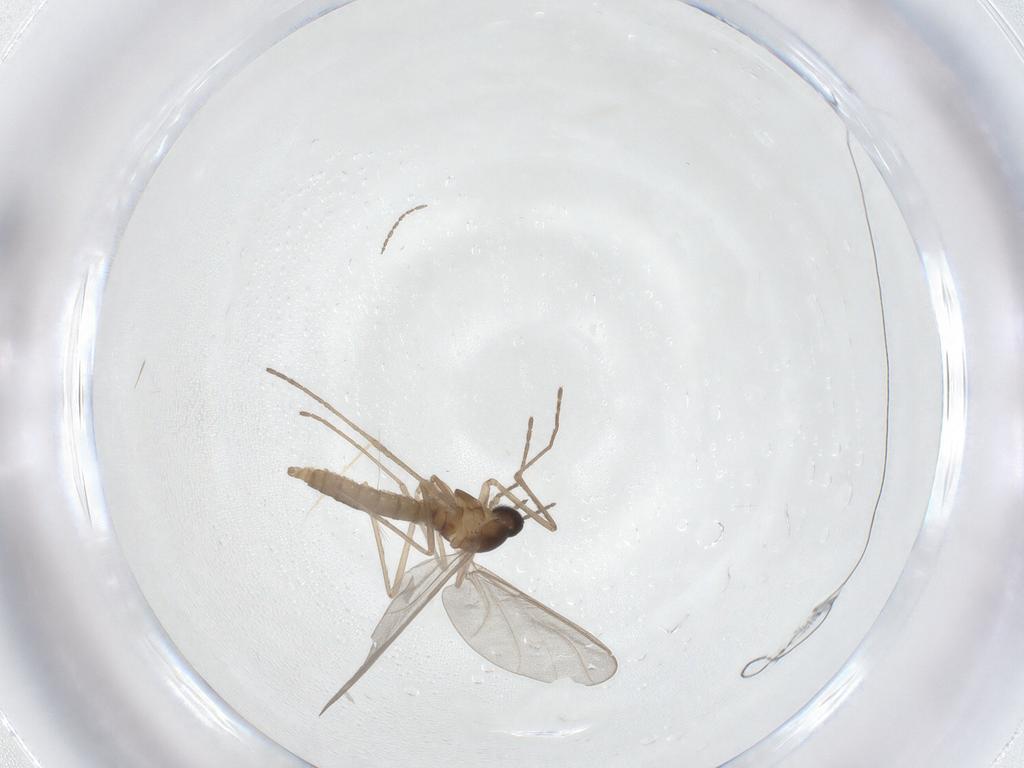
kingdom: Animalia
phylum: Arthropoda
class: Insecta
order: Diptera
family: Cecidomyiidae
